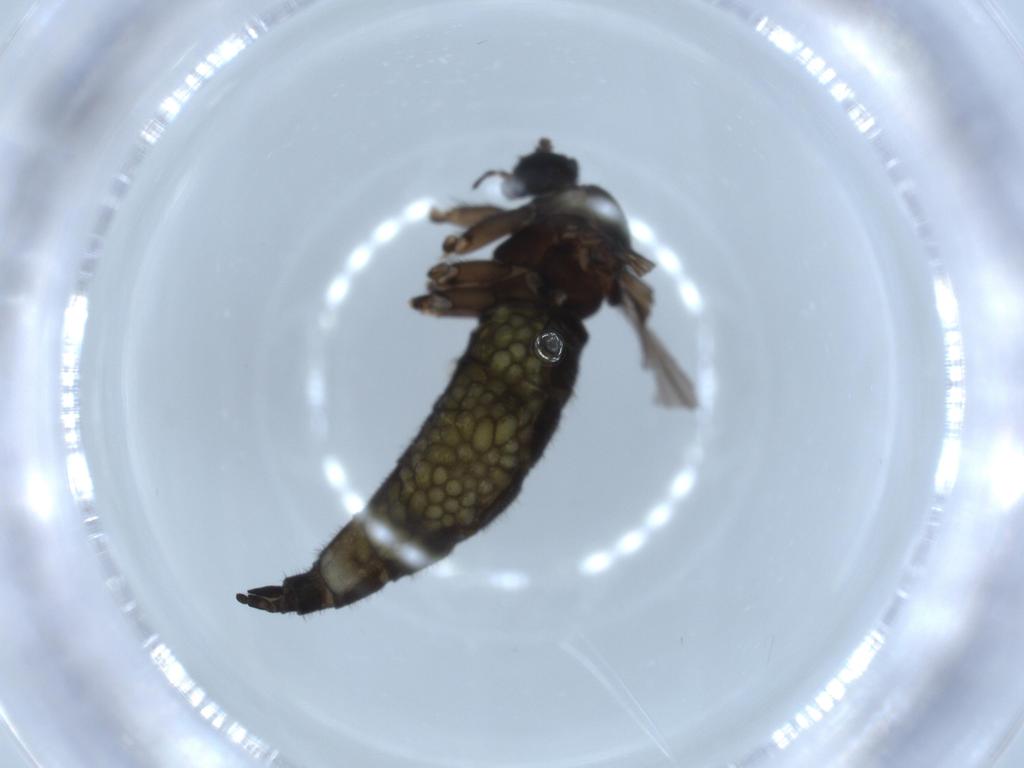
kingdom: Animalia
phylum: Arthropoda
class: Insecta
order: Diptera
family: Sciaridae
